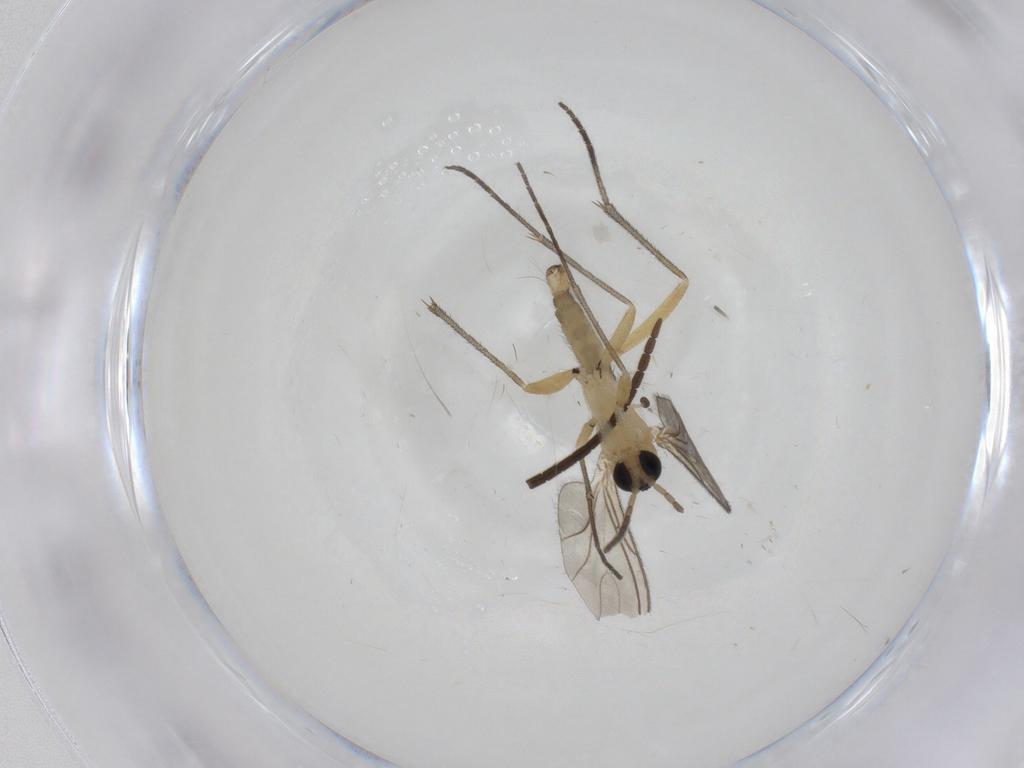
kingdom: Animalia
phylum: Arthropoda
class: Insecta
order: Diptera
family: Sciaridae
